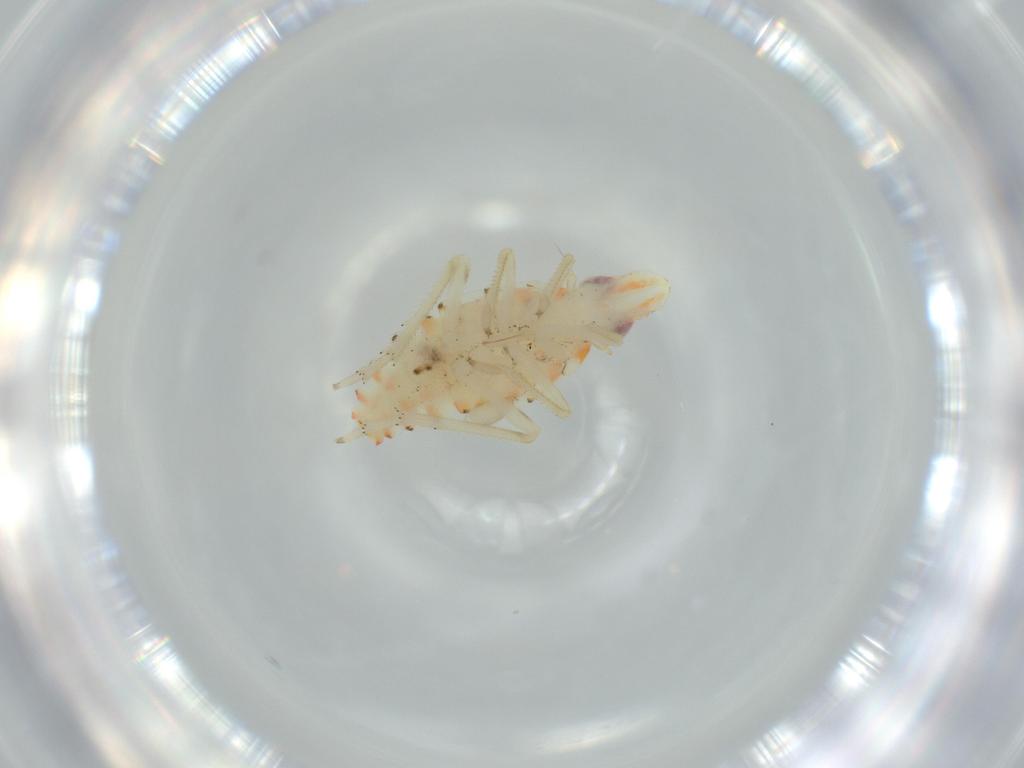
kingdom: Animalia
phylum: Arthropoda
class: Insecta
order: Hemiptera
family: Tropiduchidae
